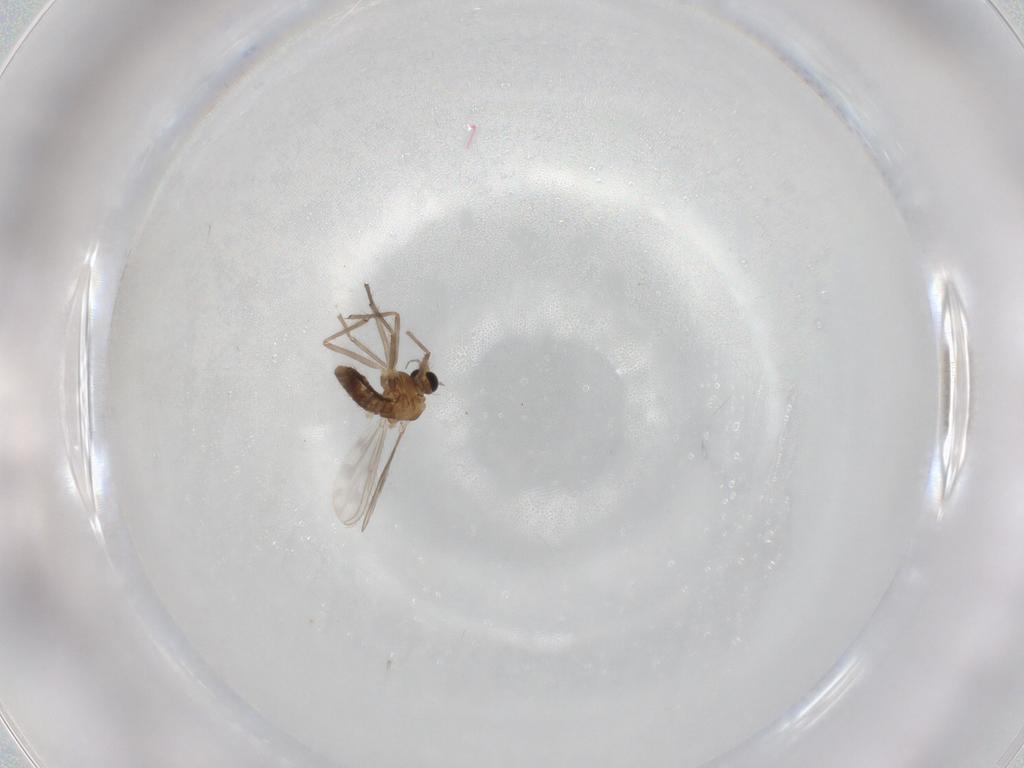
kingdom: Animalia
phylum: Arthropoda
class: Insecta
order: Diptera
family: Chironomidae
